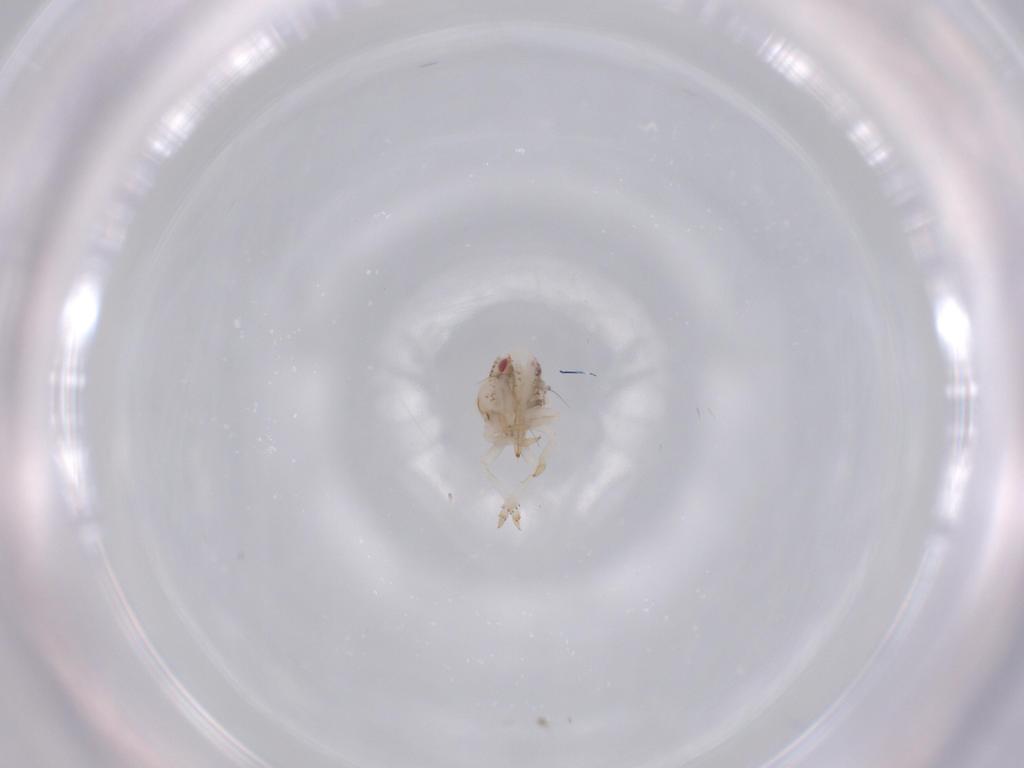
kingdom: Animalia
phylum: Arthropoda
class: Insecta
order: Hemiptera
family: Acanaloniidae
